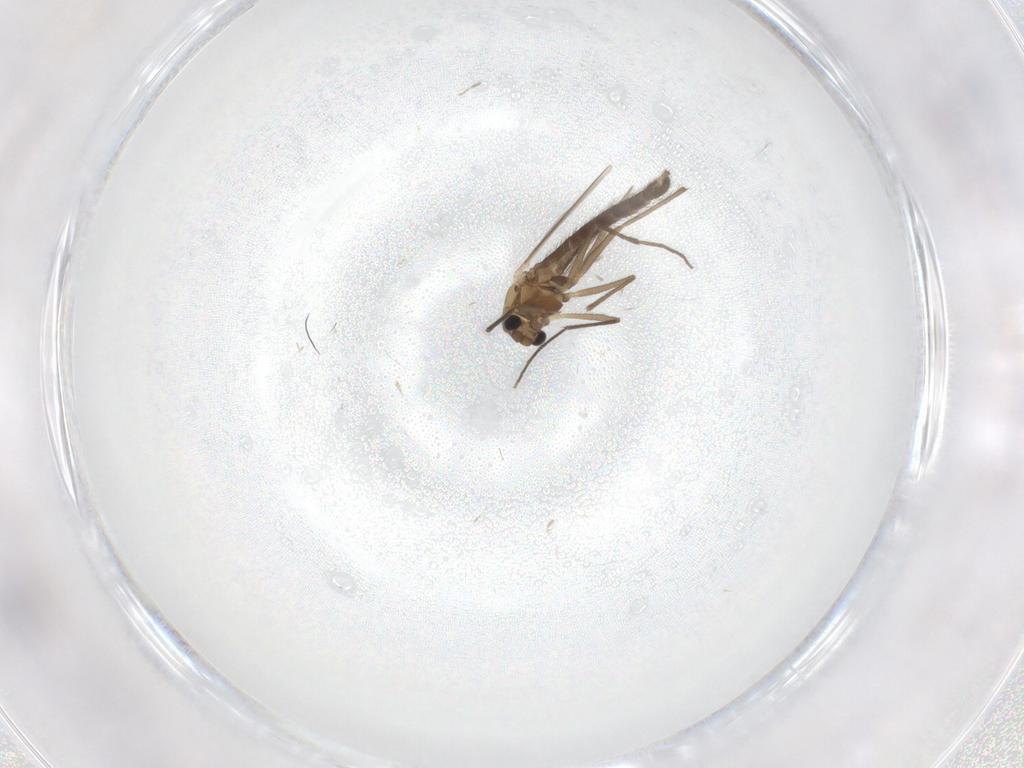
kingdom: Animalia
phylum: Arthropoda
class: Insecta
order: Diptera
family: Chironomidae
